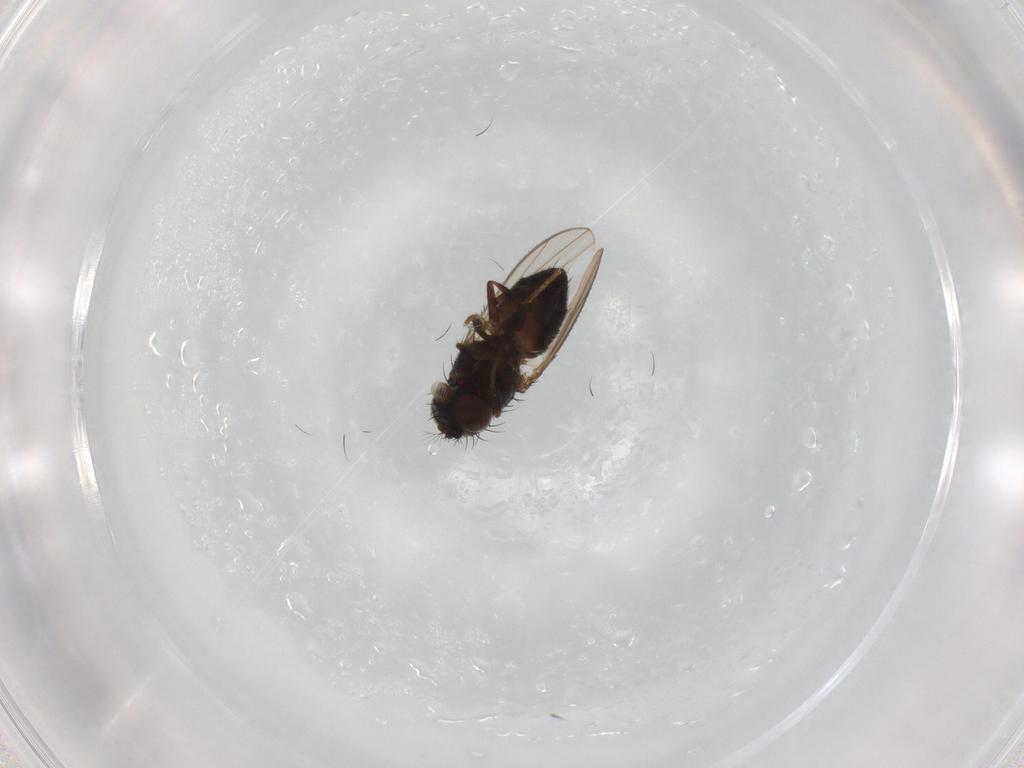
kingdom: Animalia
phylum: Arthropoda
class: Insecta
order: Diptera
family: Ephydridae
